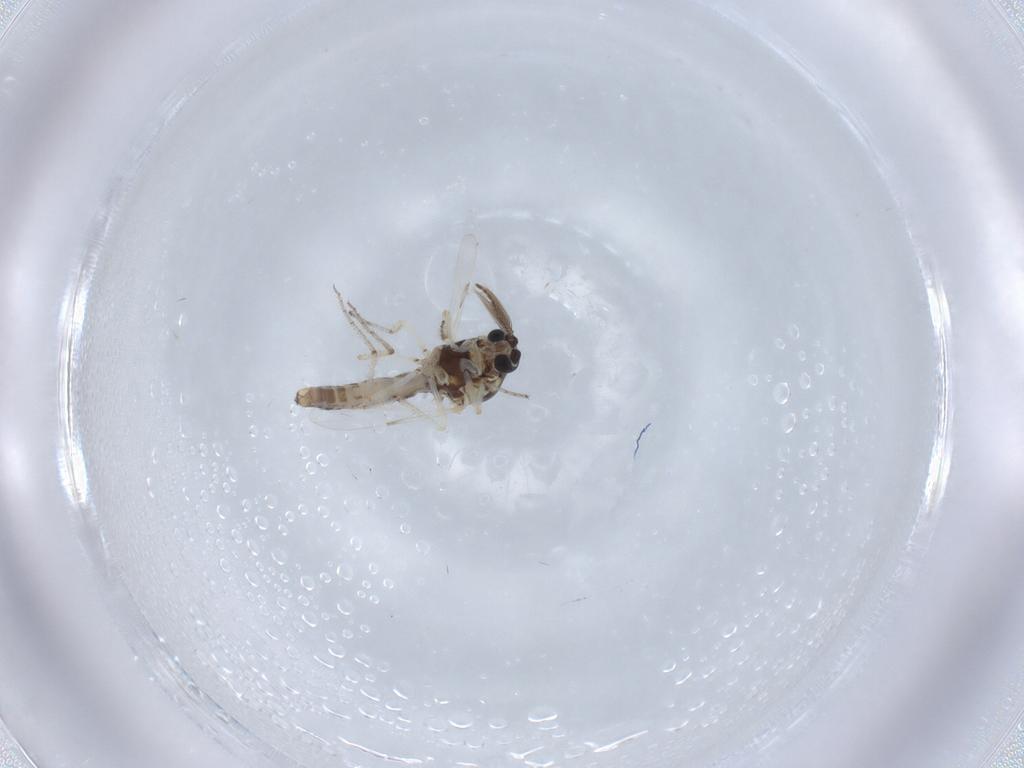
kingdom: Animalia
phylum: Arthropoda
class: Insecta
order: Diptera
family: Ceratopogonidae
